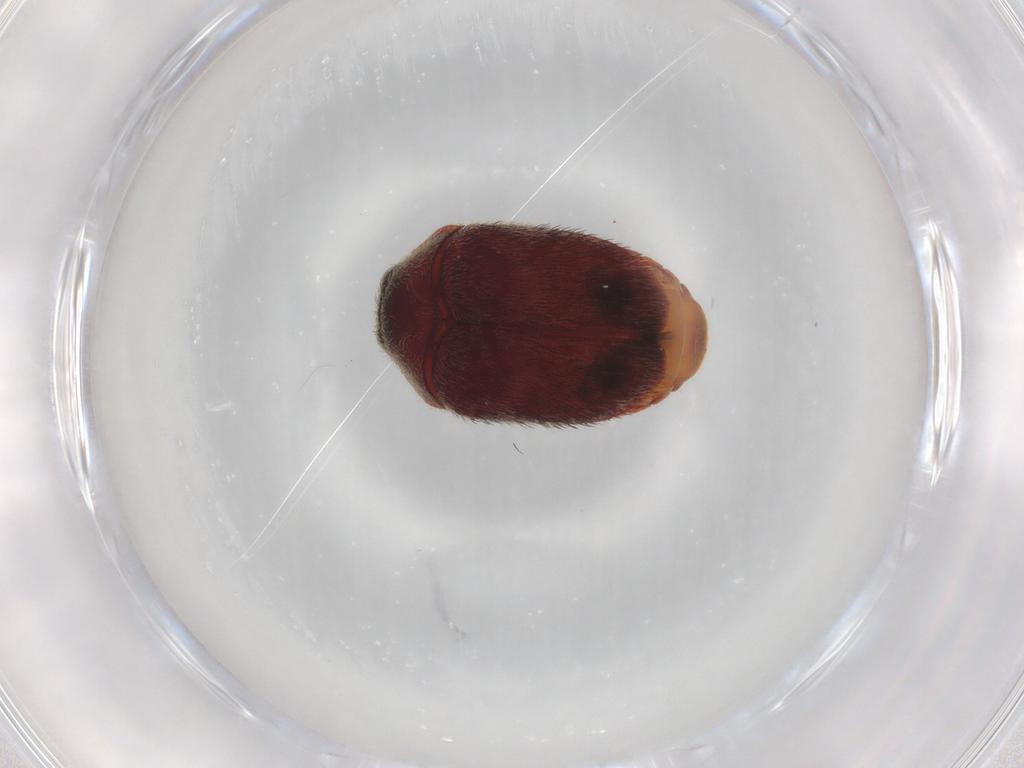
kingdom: Animalia
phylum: Arthropoda
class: Insecta
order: Coleoptera
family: Dermestidae
